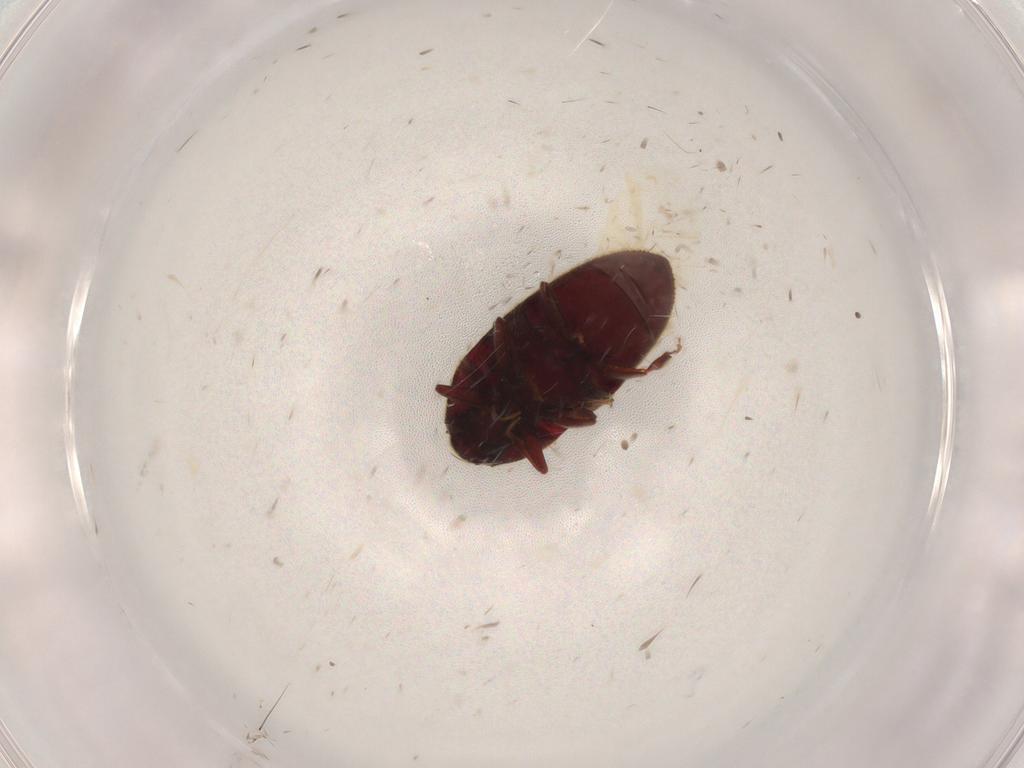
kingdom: Animalia
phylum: Arthropoda
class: Insecta
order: Coleoptera
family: Throscidae
